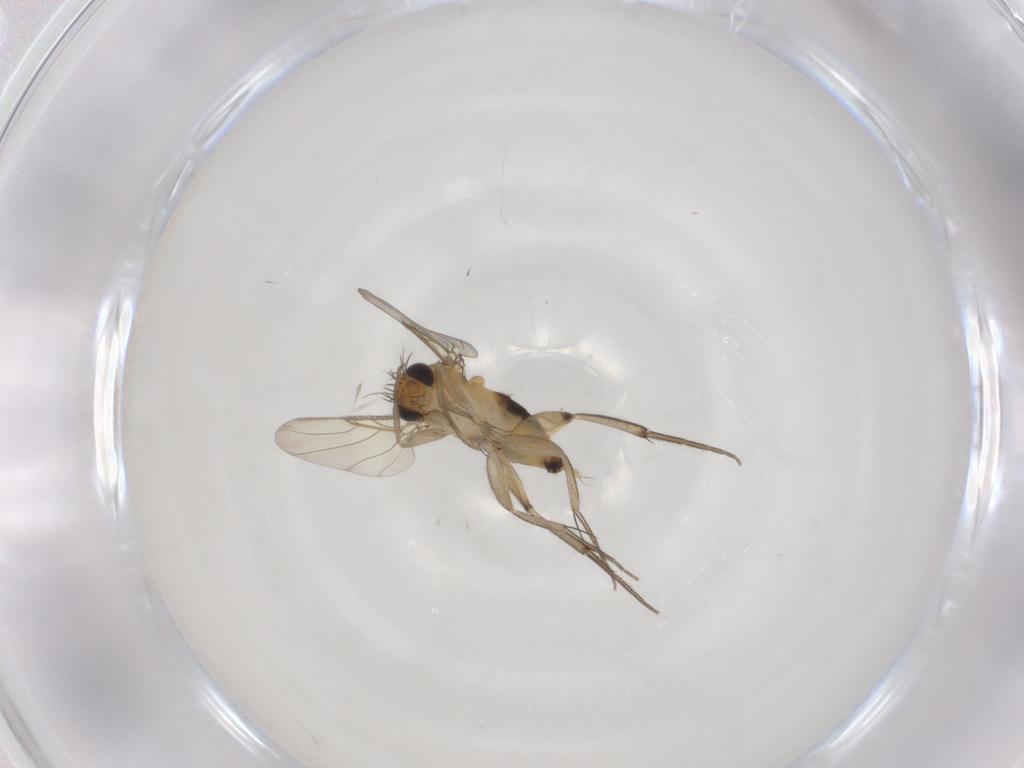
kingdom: Animalia
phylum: Arthropoda
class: Insecta
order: Diptera
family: Phoridae
